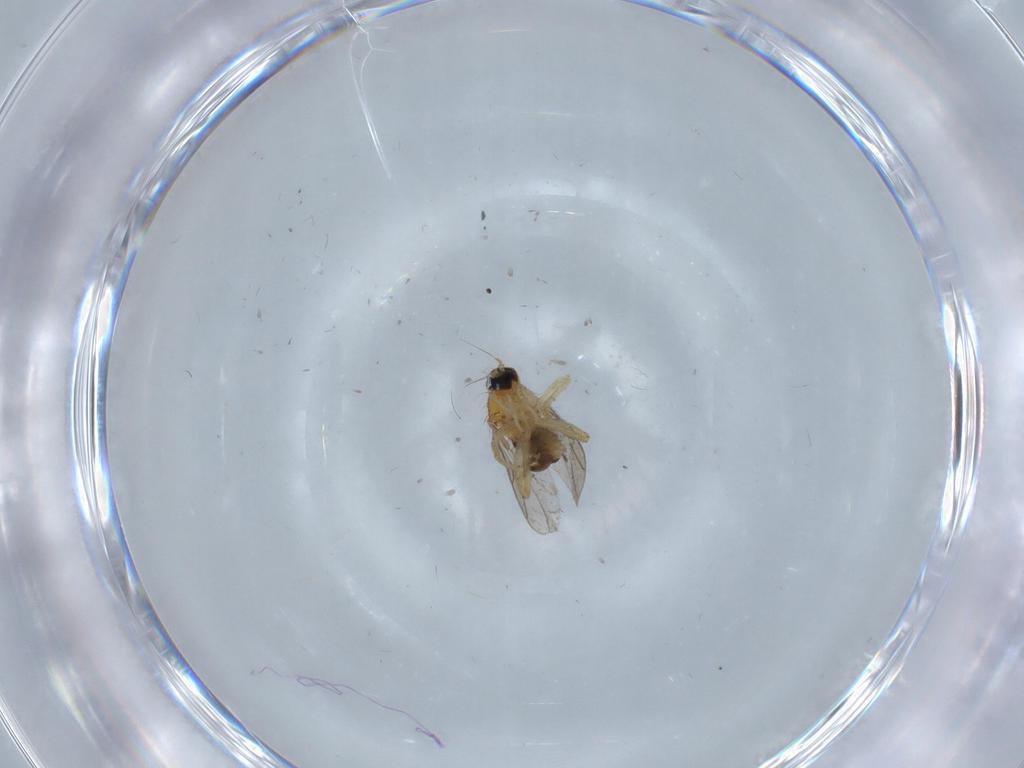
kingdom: Animalia
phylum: Arthropoda
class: Insecta
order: Diptera
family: Hybotidae
